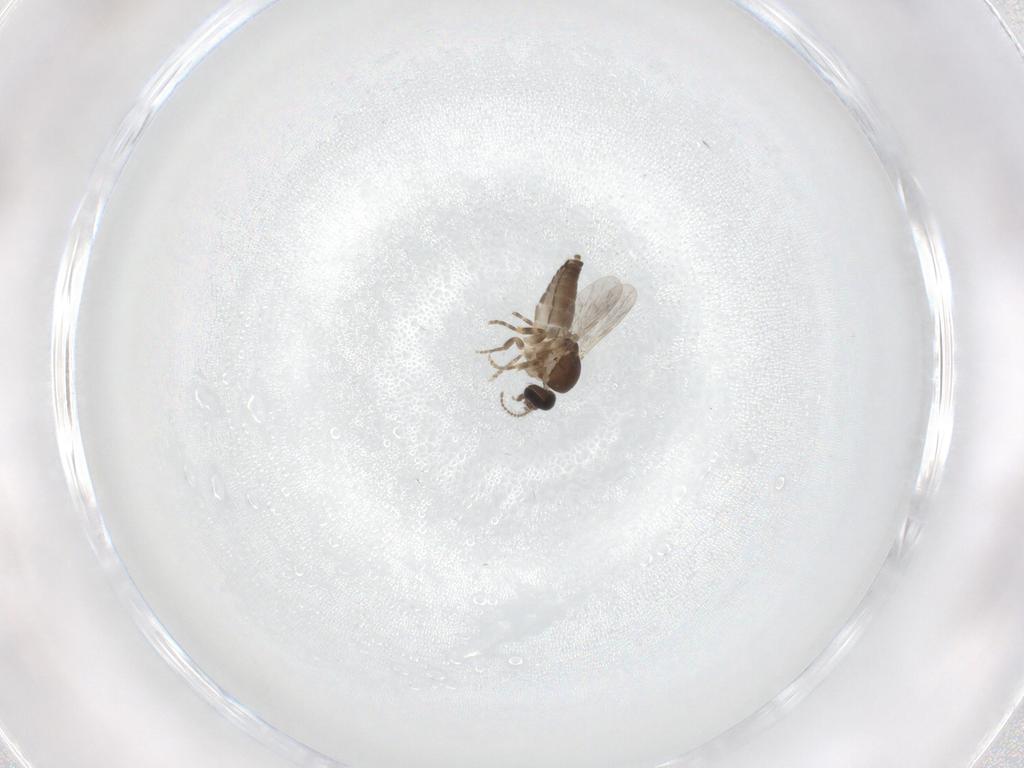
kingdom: Animalia
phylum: Arthropoda
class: Insecta
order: Diptera
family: Ceratopogonidae
